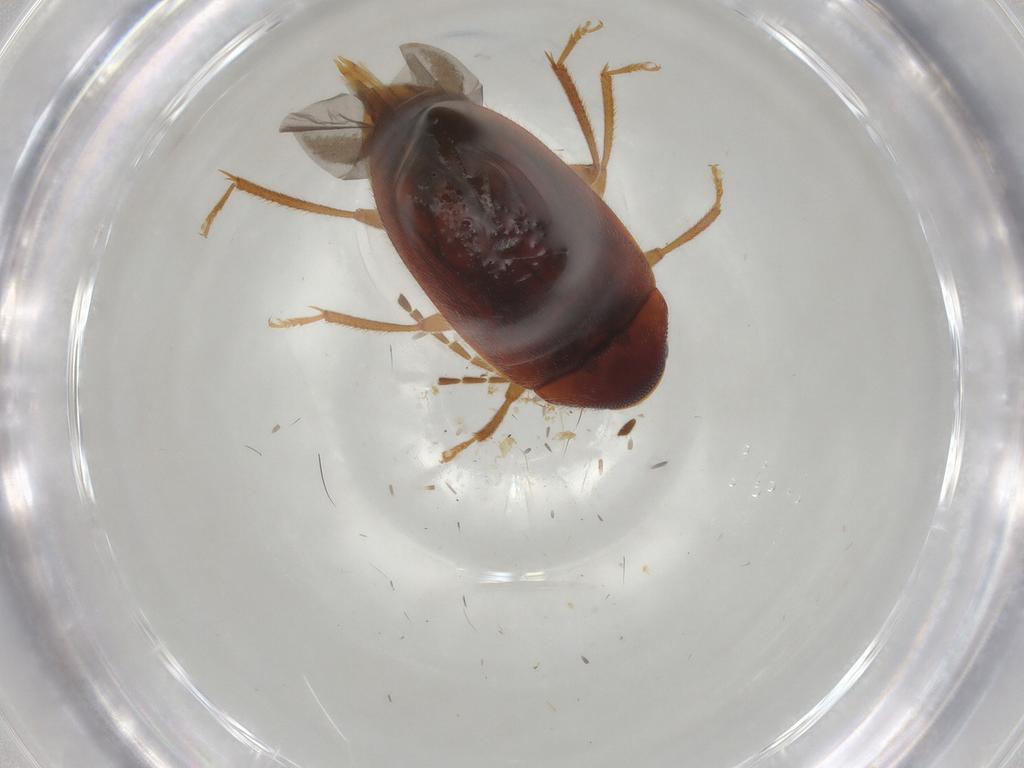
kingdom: Animalia
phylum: Arthropoda
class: Insecta
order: Coleoptera
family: Ptilodactylidae
